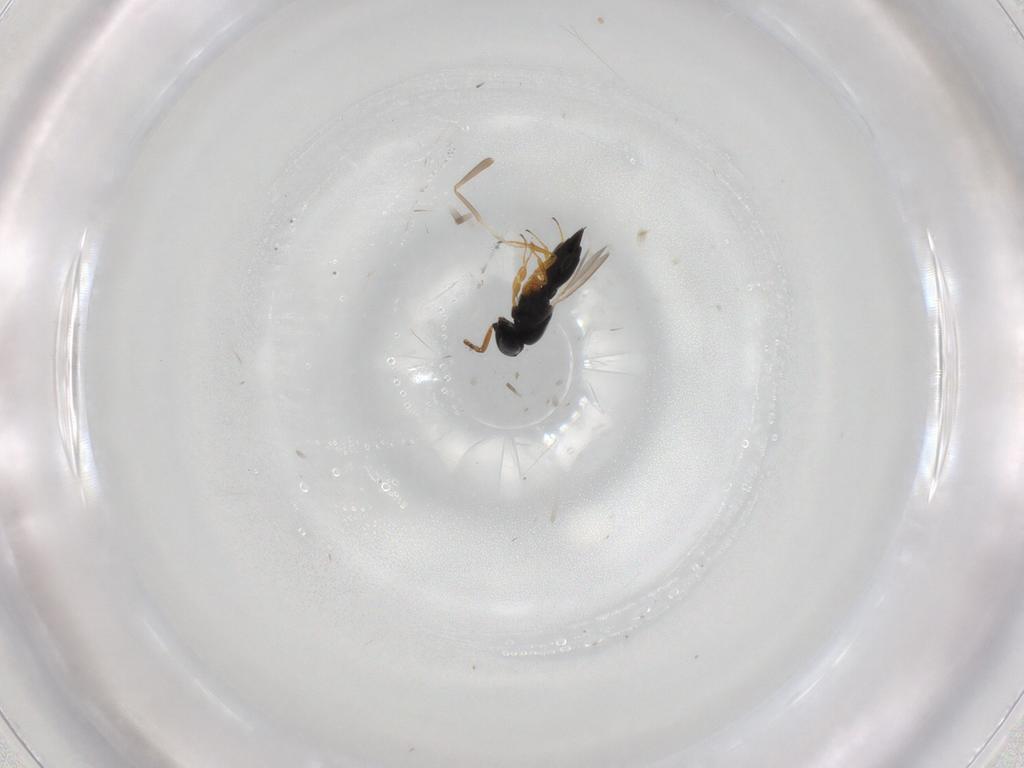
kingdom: Animalia
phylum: Arthropoda
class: Insecta
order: Hymenoptera
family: Scelionidae
